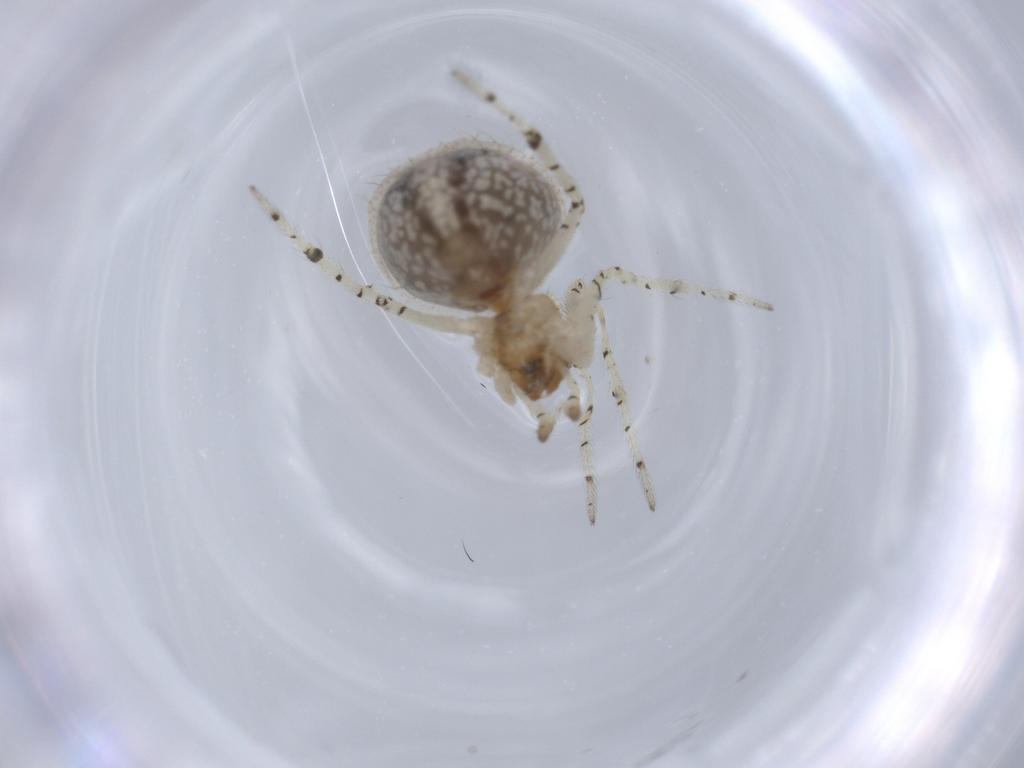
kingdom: Animalia
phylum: Arthropoda
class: Arachnida
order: Araneae
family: Theridiidae
